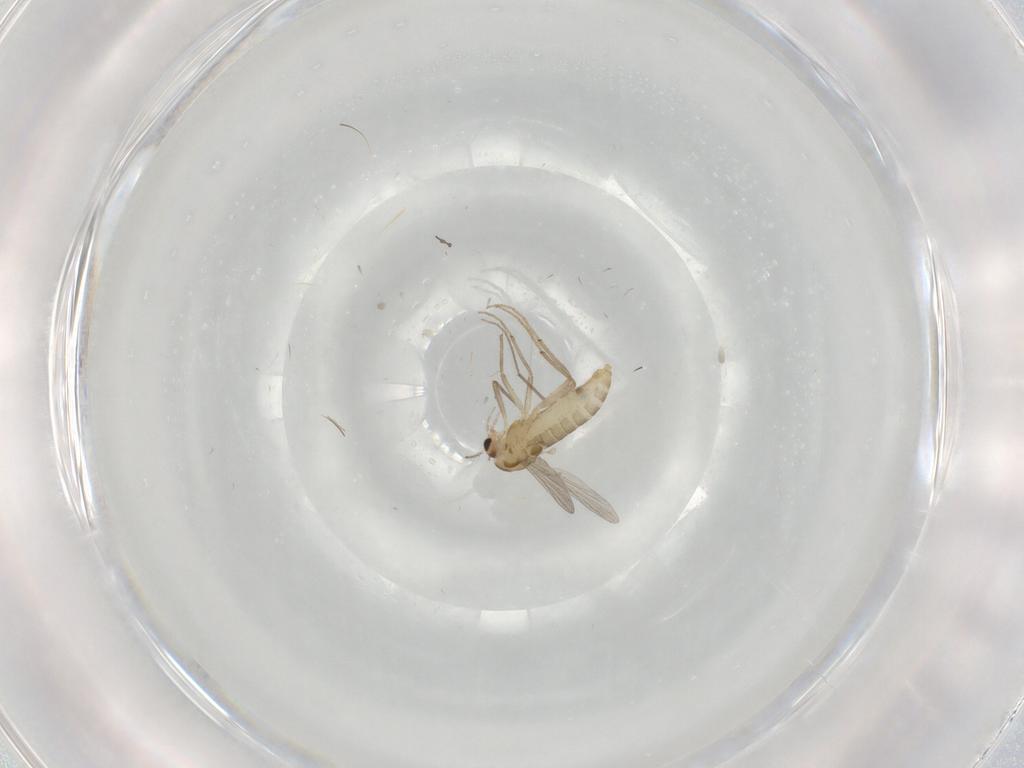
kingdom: Animalia
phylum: Arthropoda
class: Insecta
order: Diptera
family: Chironomidae
